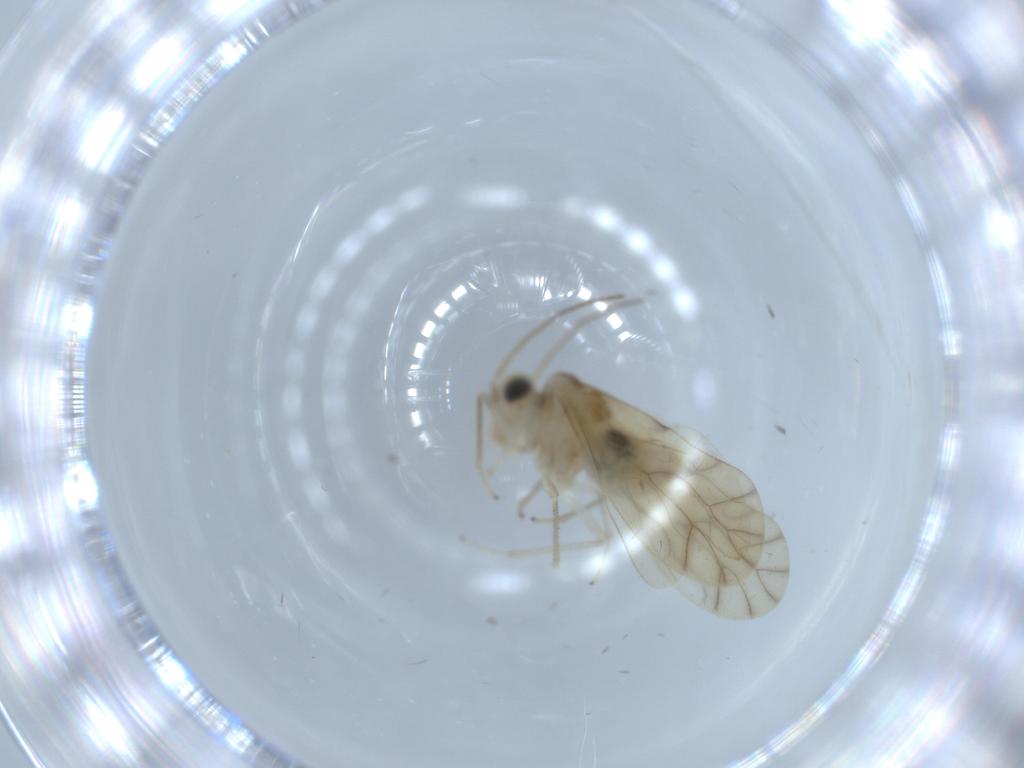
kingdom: Animalia
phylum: Arthropoda
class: Insecta
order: Psocodea
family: Caeciliusidae
